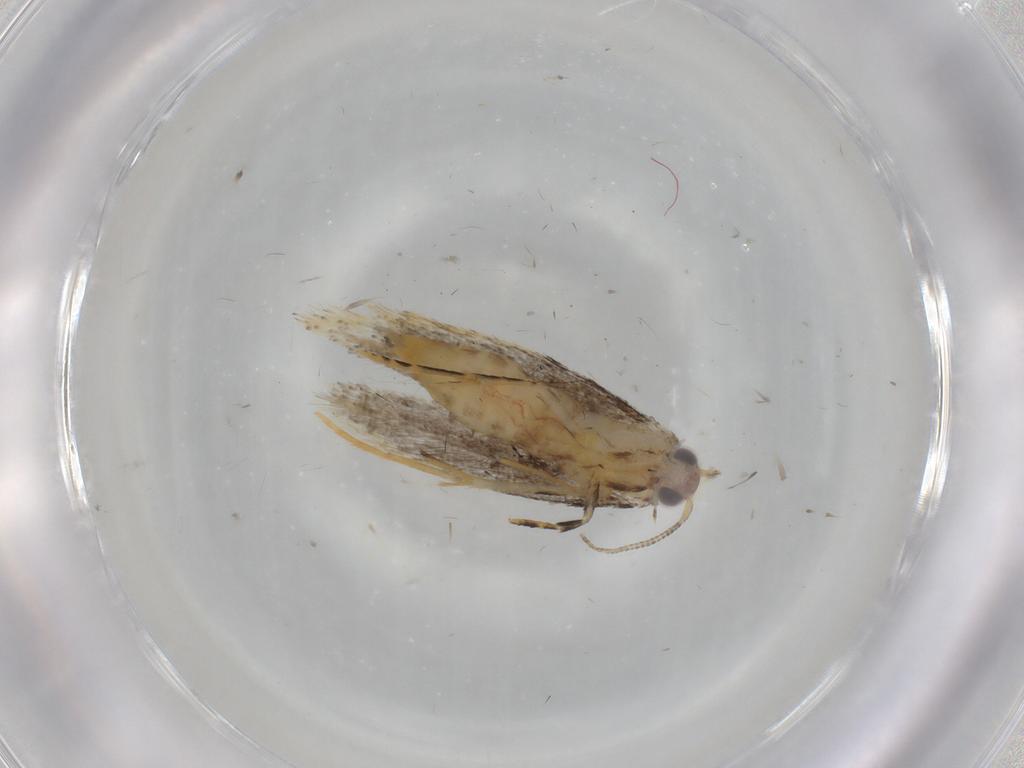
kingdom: Animalia
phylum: Arthropoda
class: Insecta
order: Lepidoptera
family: Tineidae
